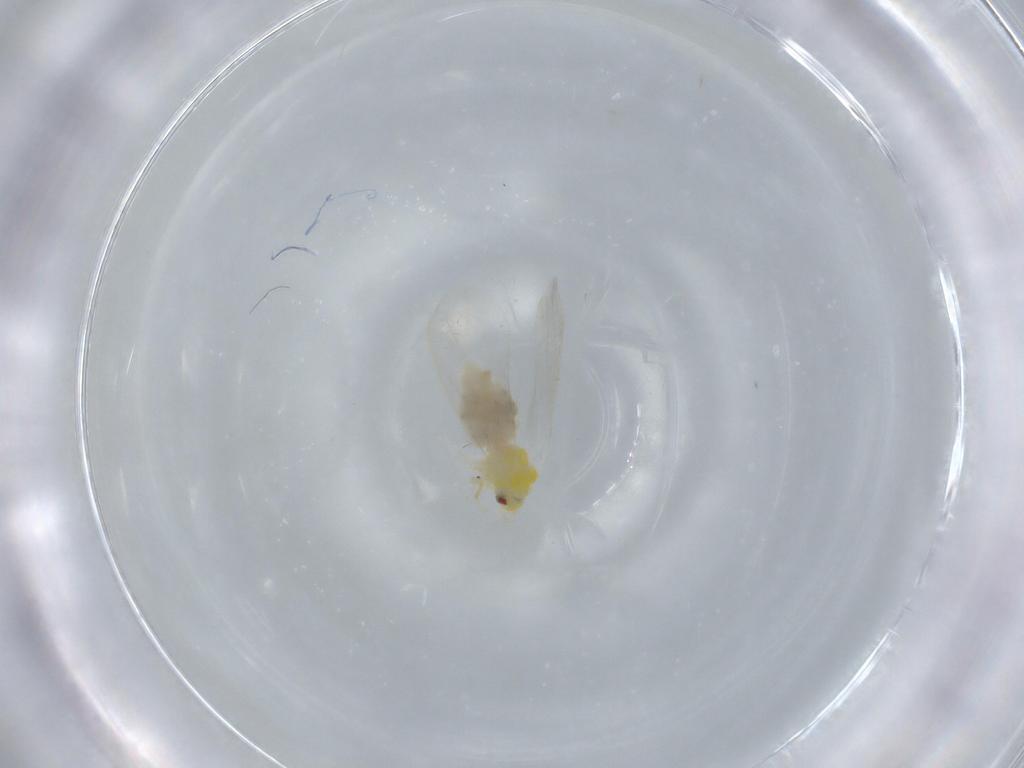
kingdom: Animalia
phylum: Arthropoda
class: Insecta
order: Hemiptera
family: Aleyrodidae
